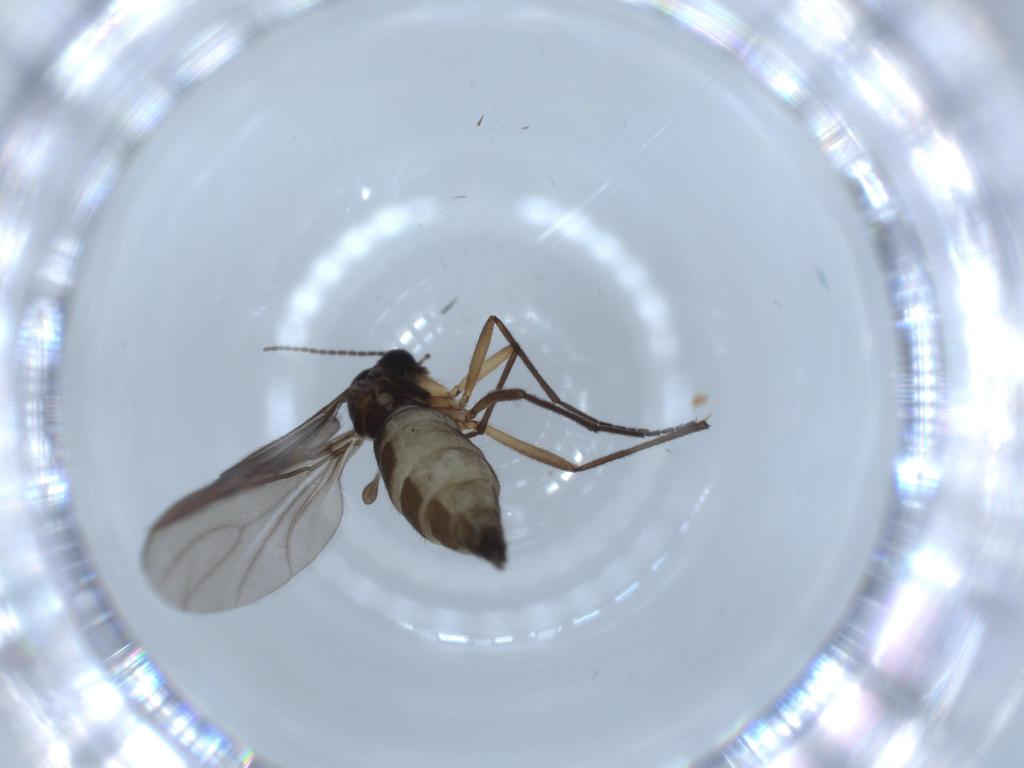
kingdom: Animalia
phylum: Arthropoda
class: Insecta
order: Diptera
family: Sciaridae
